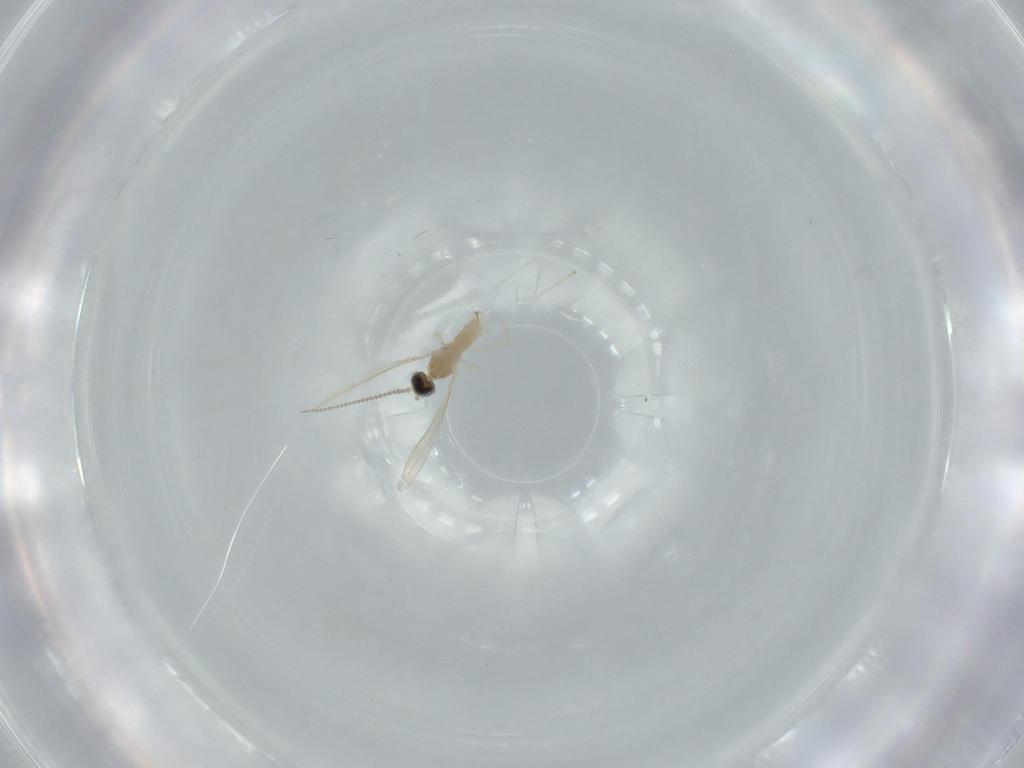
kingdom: Animalia
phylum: Arthropoda
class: Insecta
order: Diptera
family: Cecidomyiidae
